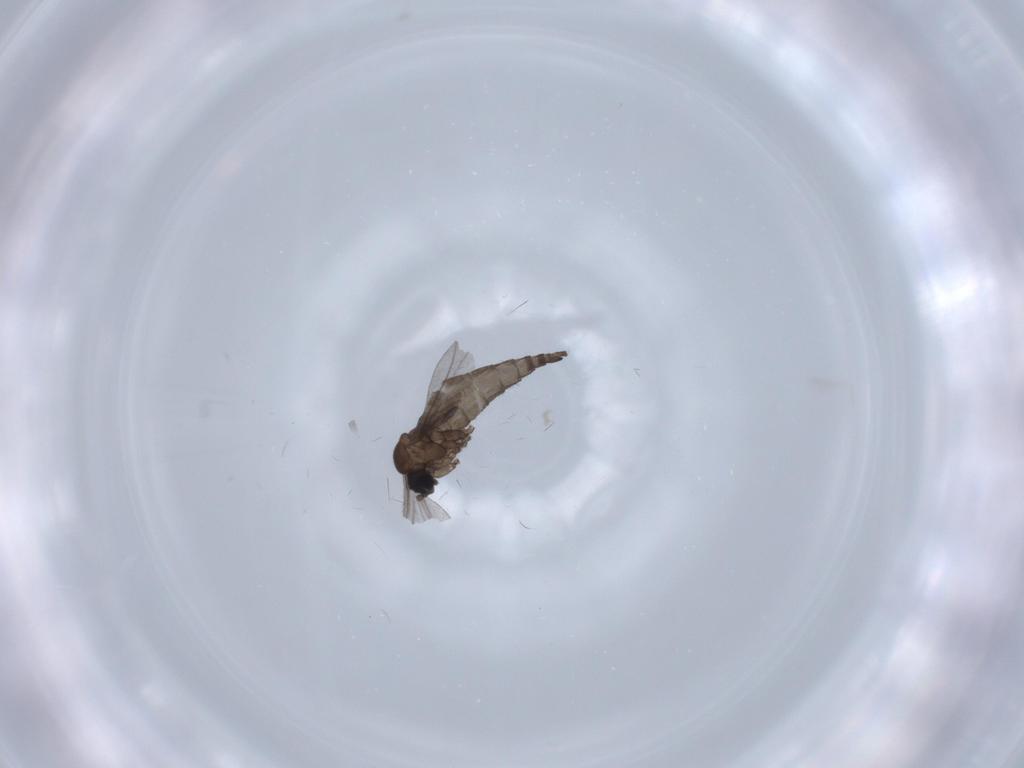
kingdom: Animalia
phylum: Arthropoda
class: Insecta
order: Diptera
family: Sciaridae
